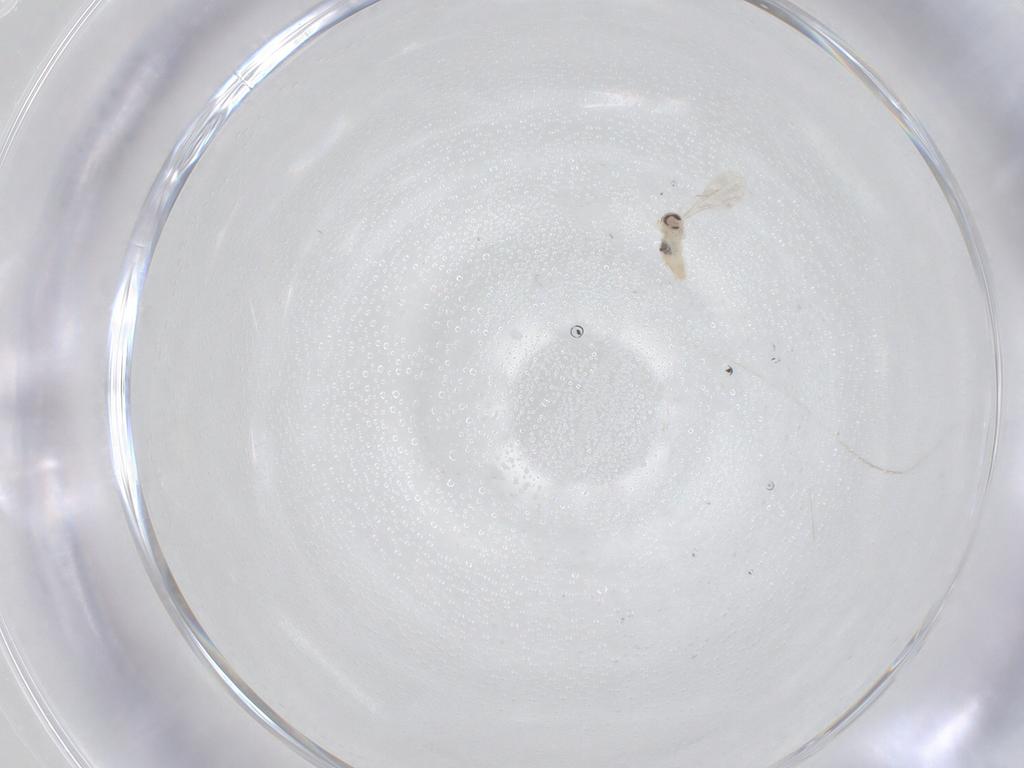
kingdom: Animalia
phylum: Arthropoda
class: Insecta
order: Diptera
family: Cecidomyiidae
